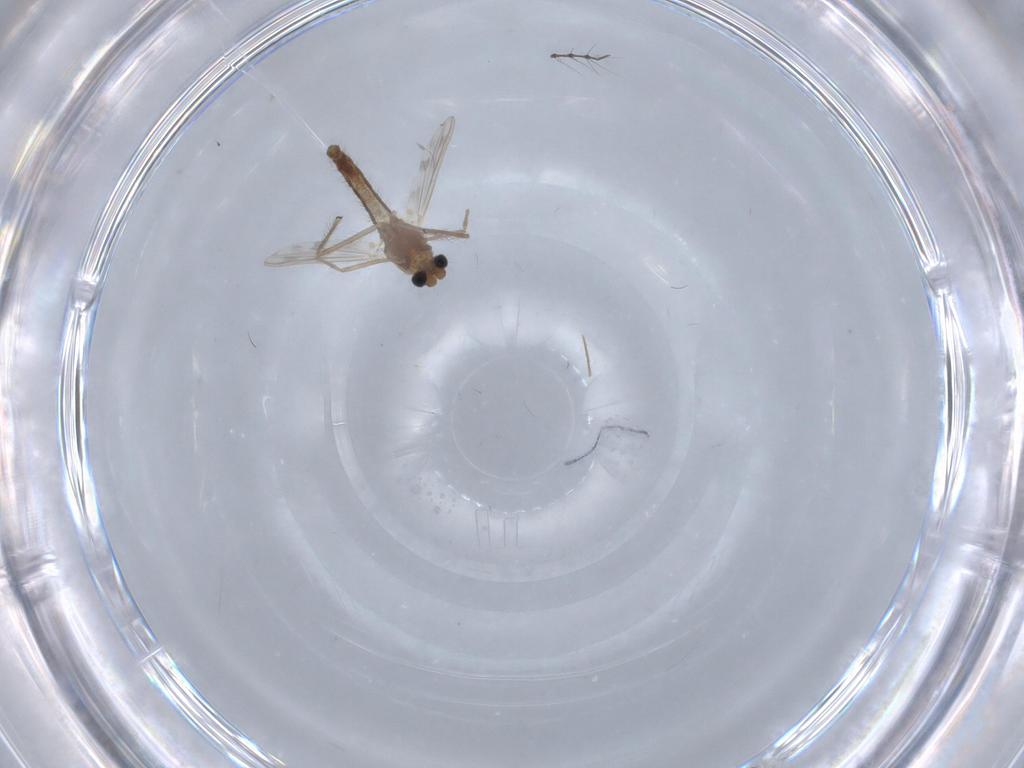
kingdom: Animalia
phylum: Arthropoda
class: Insecta
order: Diptera
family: Chironomidae
